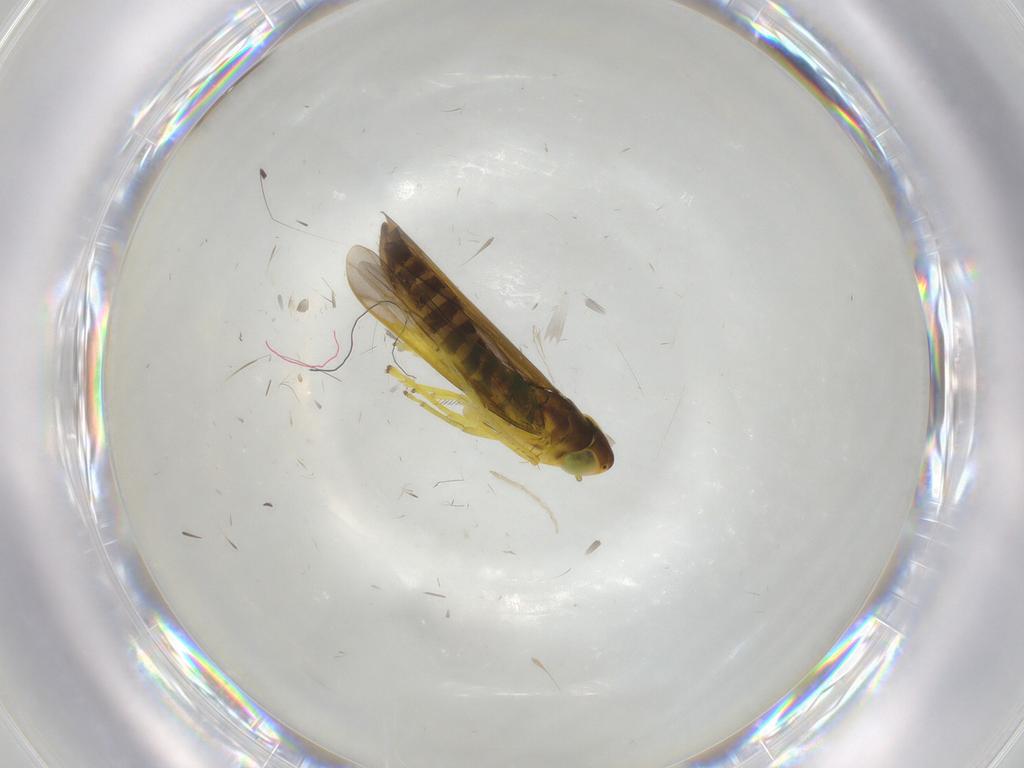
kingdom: Animalia
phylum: Arthropoda
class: Insecta
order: Hemiptera
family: Cicadellidae
